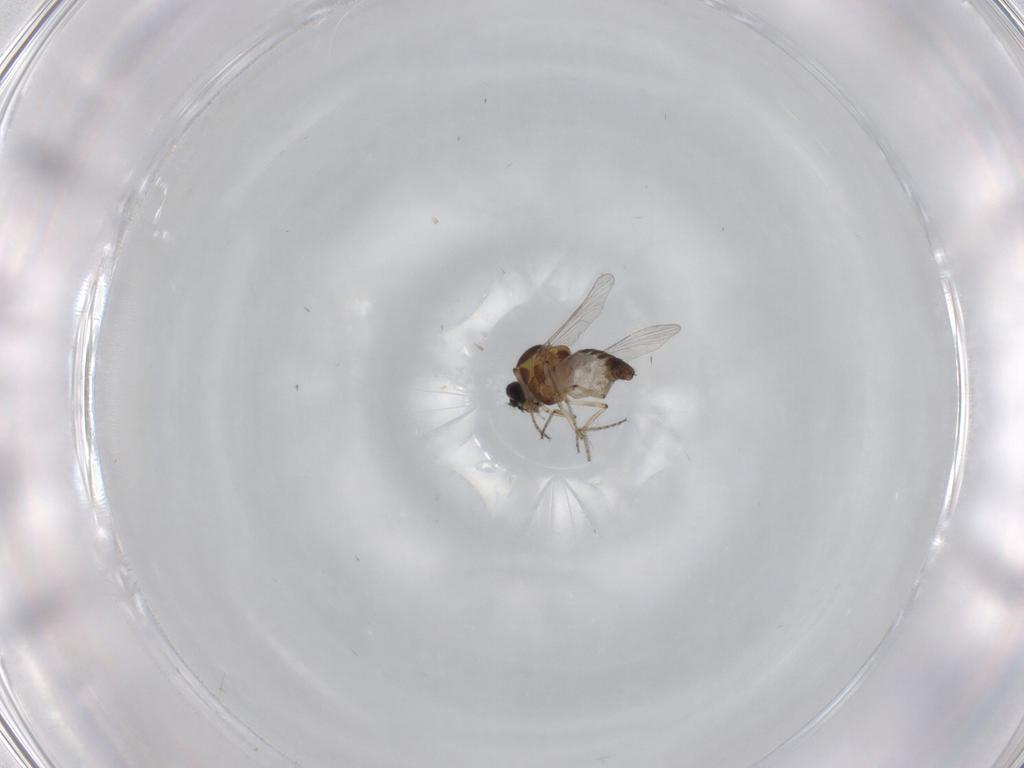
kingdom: Animalia
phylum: Arthropoda
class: Insecta
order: Diptera
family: Ceratopogonidae
